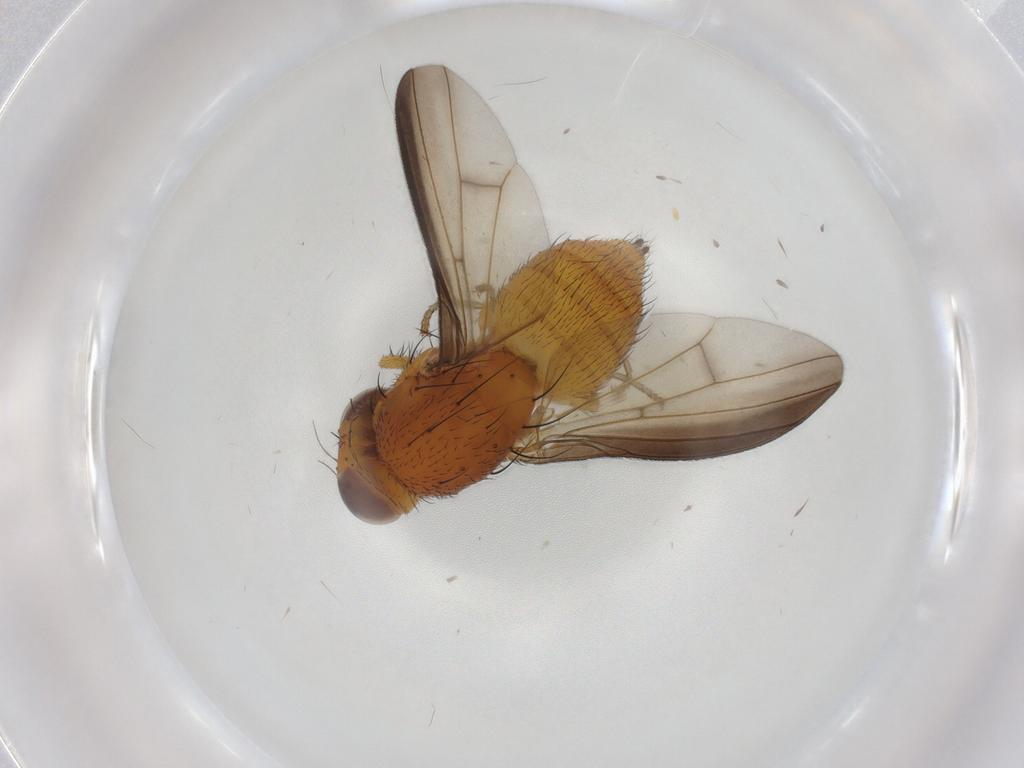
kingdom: Animalia
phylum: Arthropoda
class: Insecta
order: Diptera
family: Lauxaniidae
